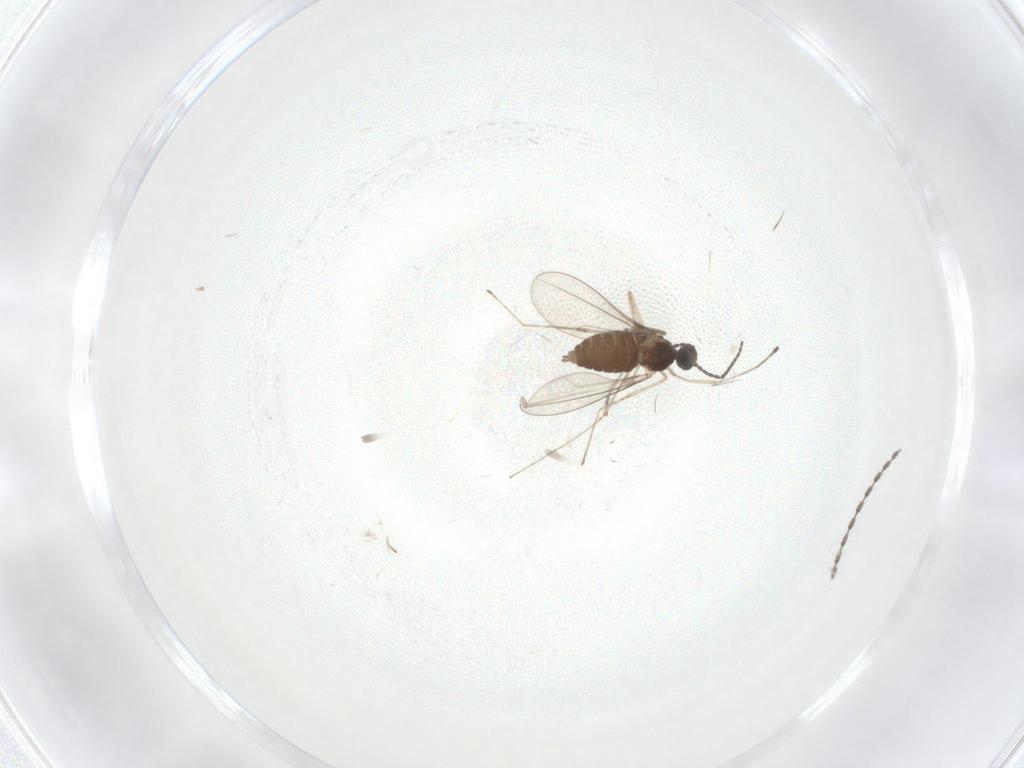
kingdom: Animalia
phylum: Arthropoda
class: Insecta
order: Diptera
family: Cecidomyiidae
